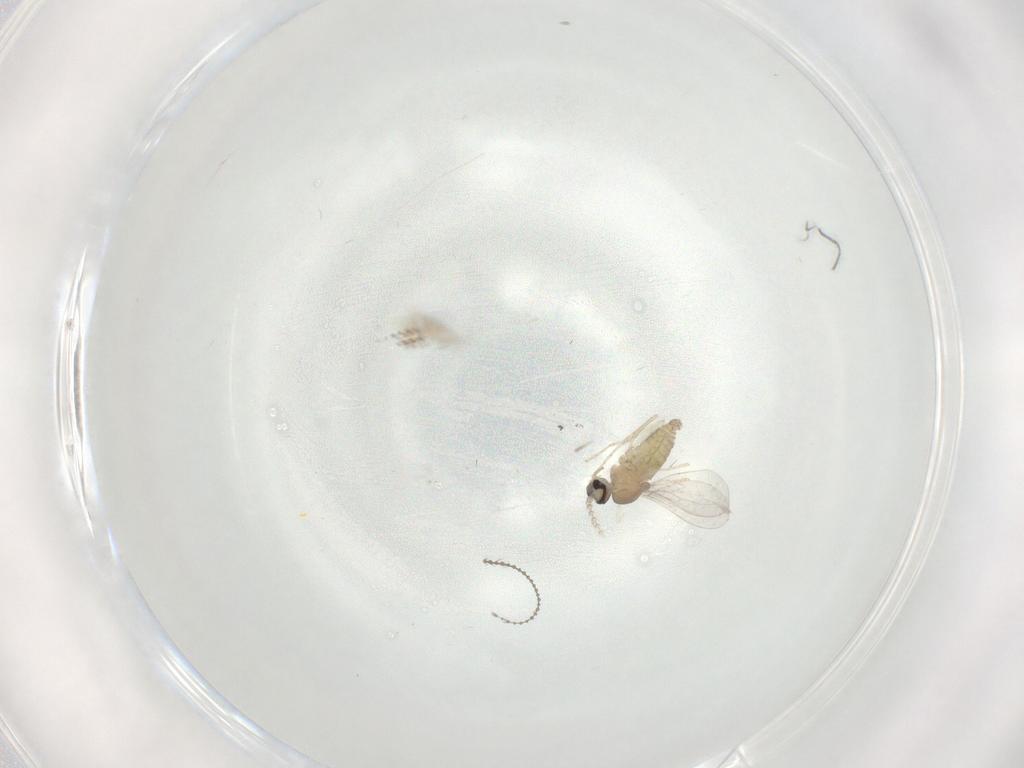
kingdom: Animalia
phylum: Arthropoda
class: Insecta
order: Diptera
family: Cecidomyiidae
